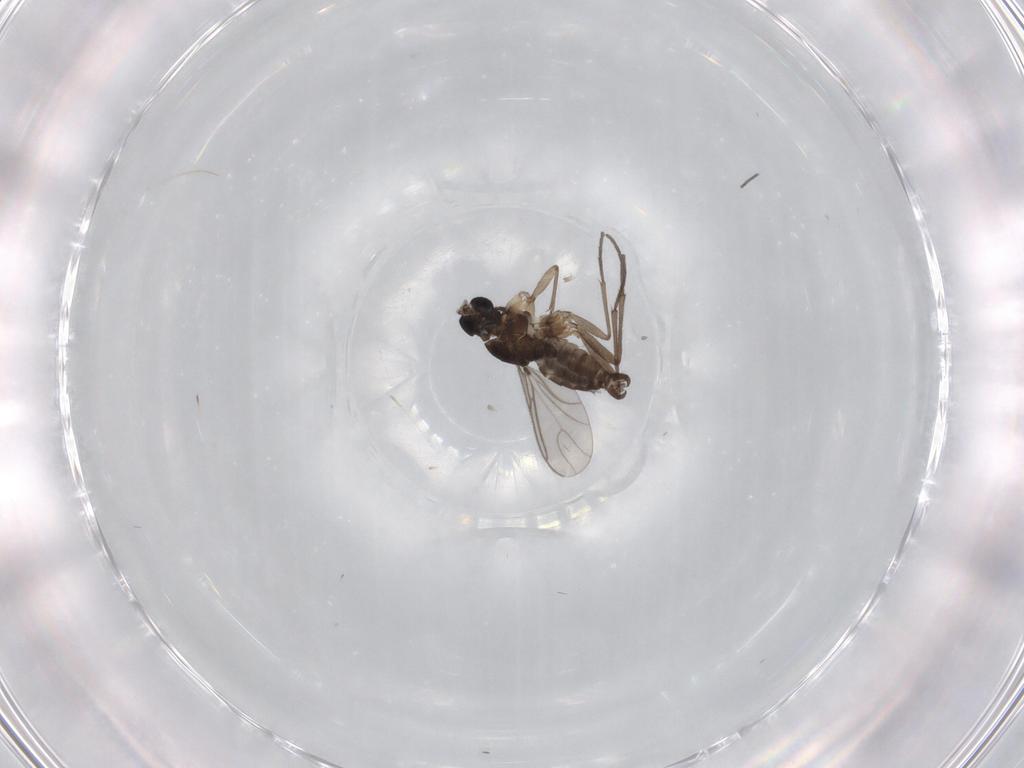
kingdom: Animalia
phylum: Arthropoda
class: Insecta
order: Diptera
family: Sciaridae
